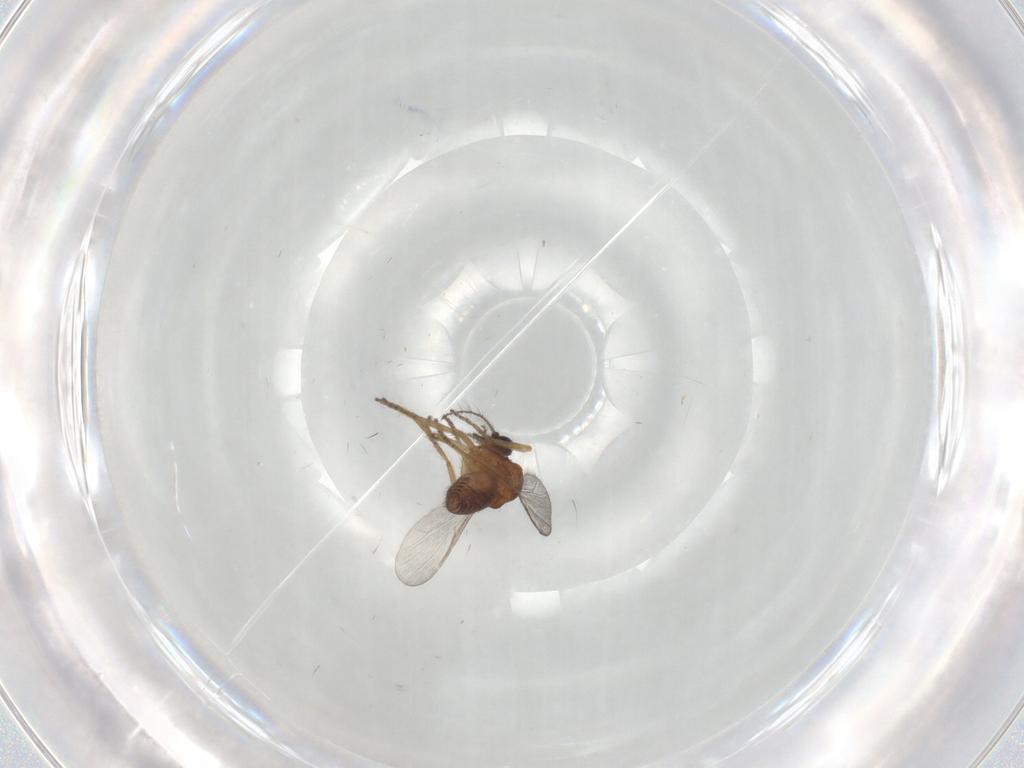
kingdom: Animalia
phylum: Arthropoda
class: Insecta
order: Diptera
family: Ceratopogonidae
